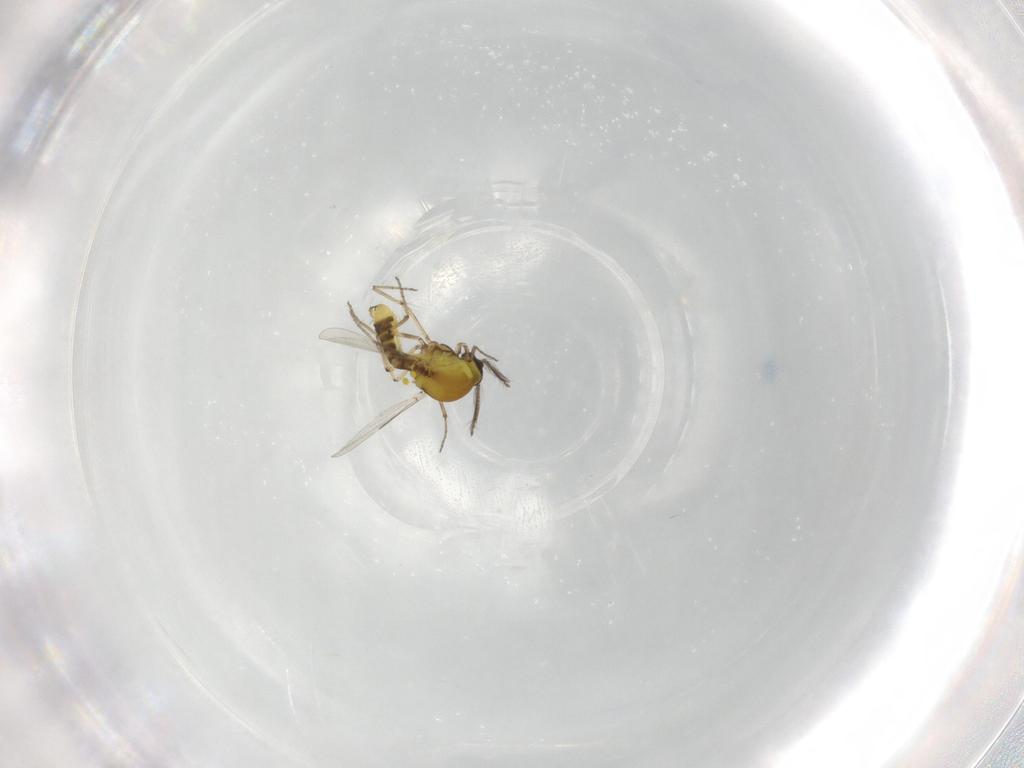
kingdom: Animalia
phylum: Arthropoda
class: Insecta
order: Diptera
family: Ceratopogonidae
